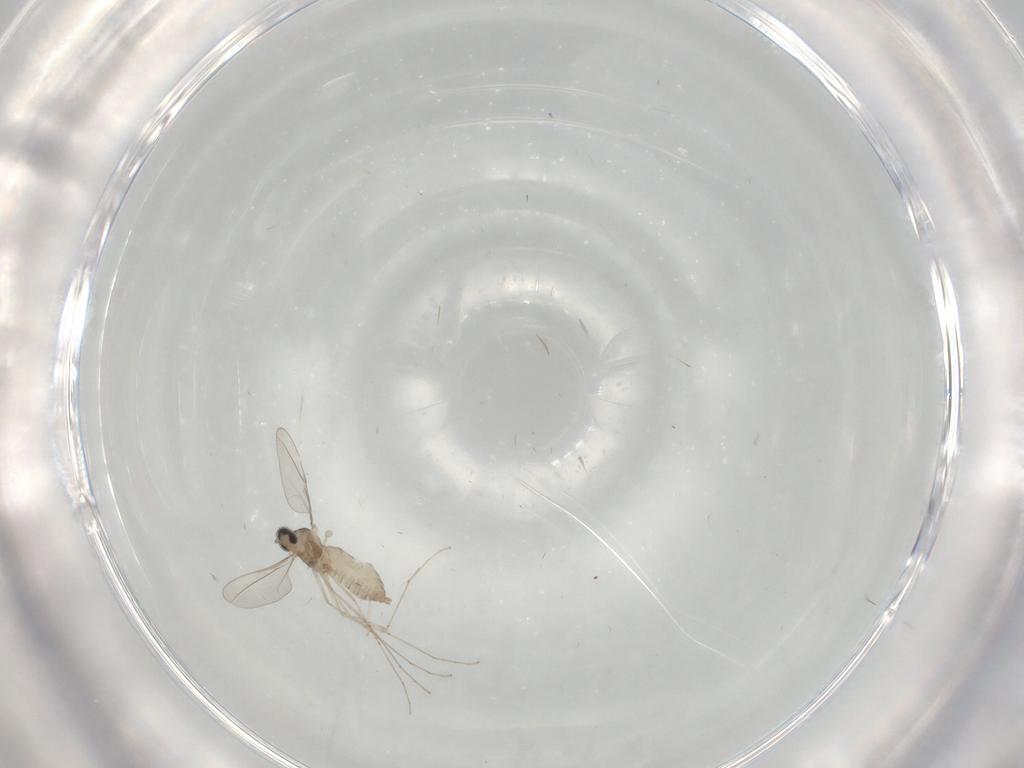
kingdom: Animalia
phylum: Arthropoda
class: Insecta
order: Diptera
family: Cecidomyiidae
